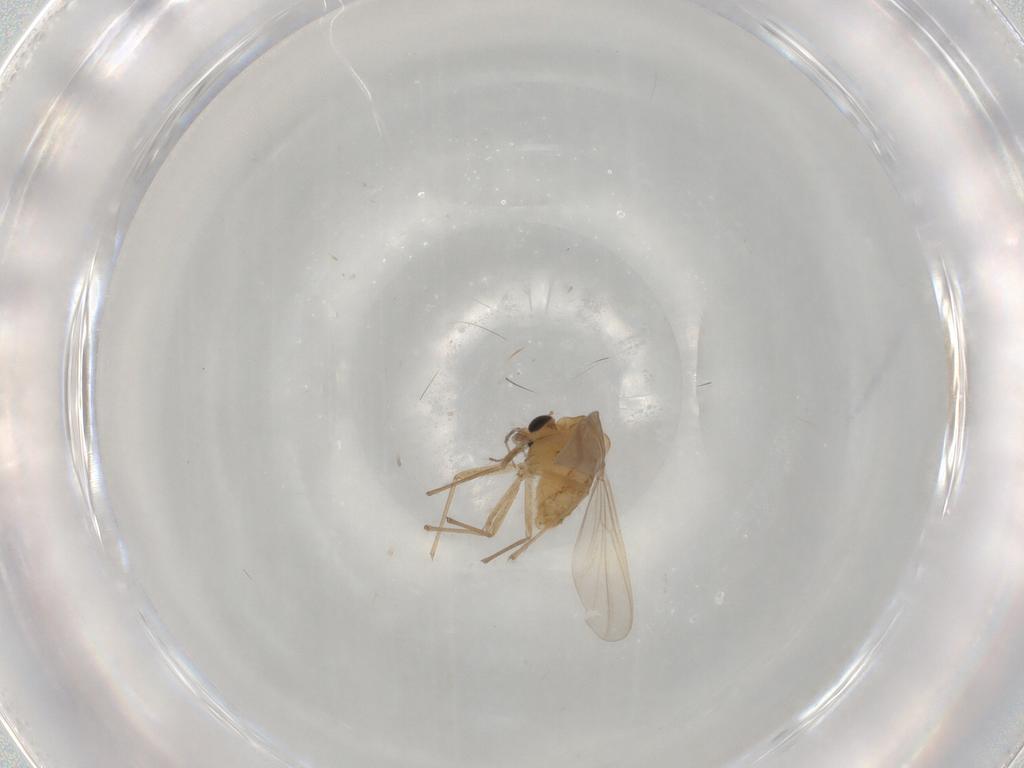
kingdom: Animalia
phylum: Arthropoda
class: Insecta
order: Diptera
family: Chironomidae
